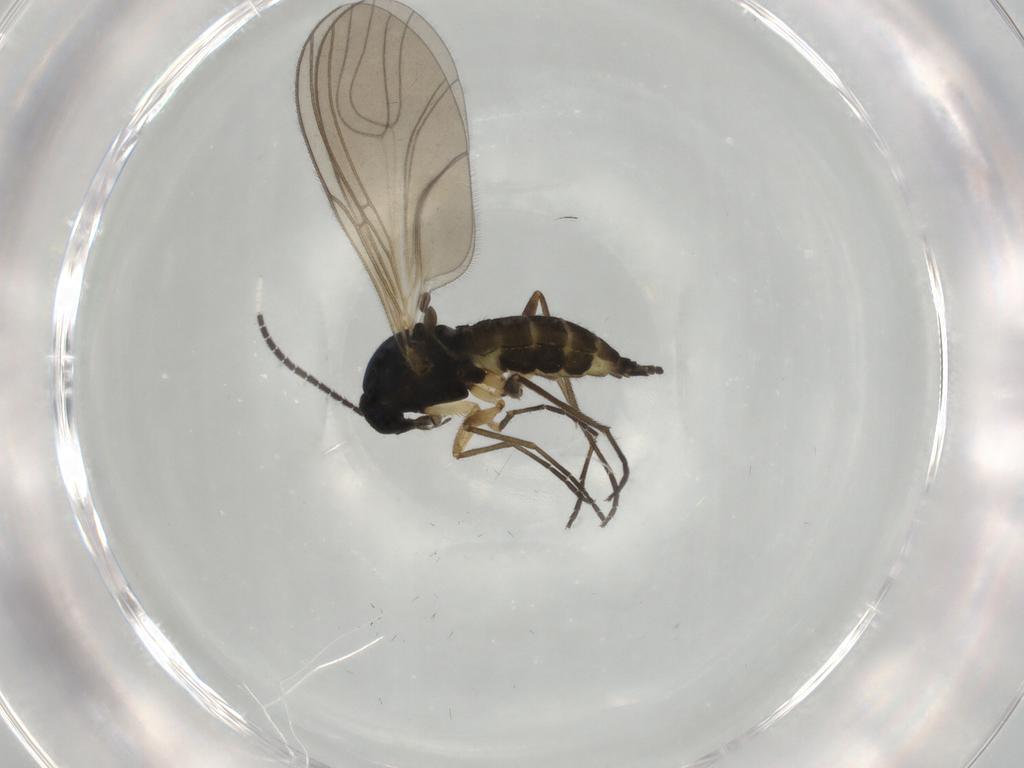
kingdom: Animalia
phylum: Arthropoda
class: Insecta
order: Diptera
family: Sciaridae
